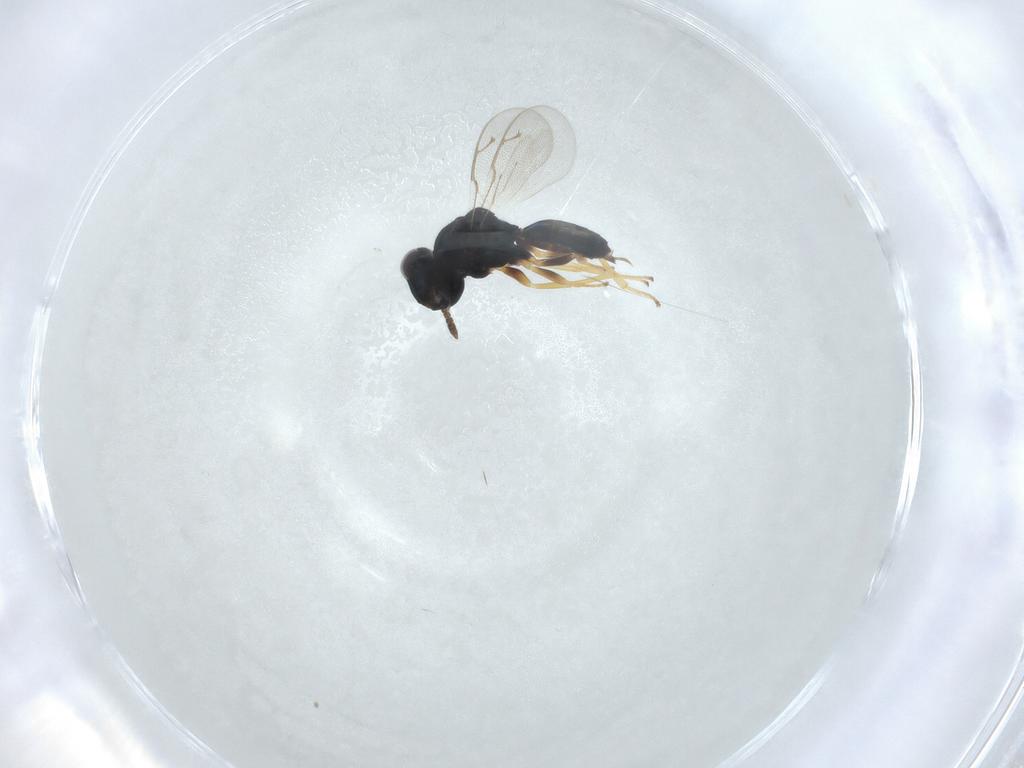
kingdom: Animalia
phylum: Arthropoda
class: Insecta
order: Hymenoptera
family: Pteromalidae
